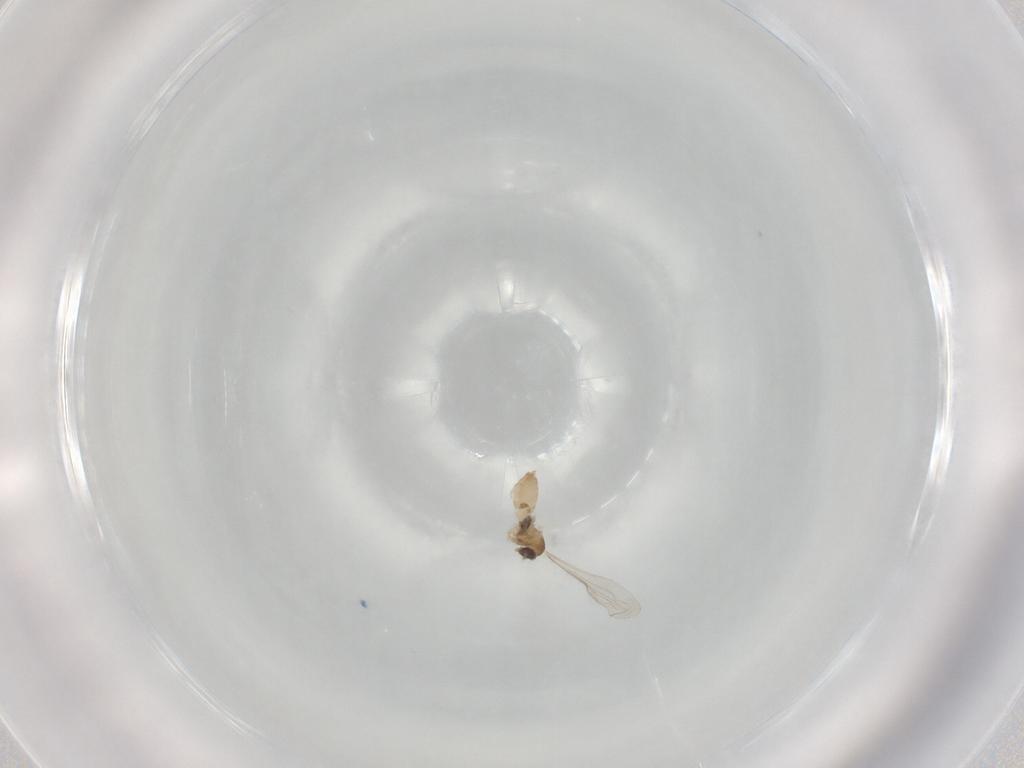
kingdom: Animalia
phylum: Arthropoda
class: Insecta
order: Diptera
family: Cecidomyiidae
